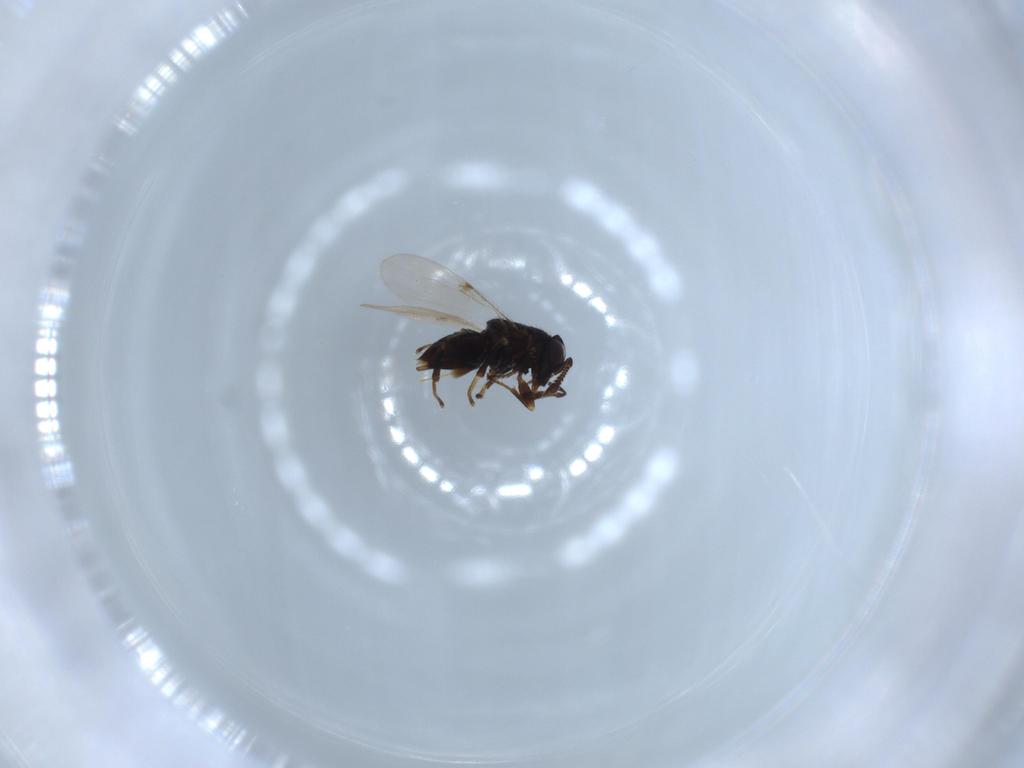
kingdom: Animalia
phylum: Arthropoda
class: Insecta
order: Hymenoptera
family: Encyrtidae
